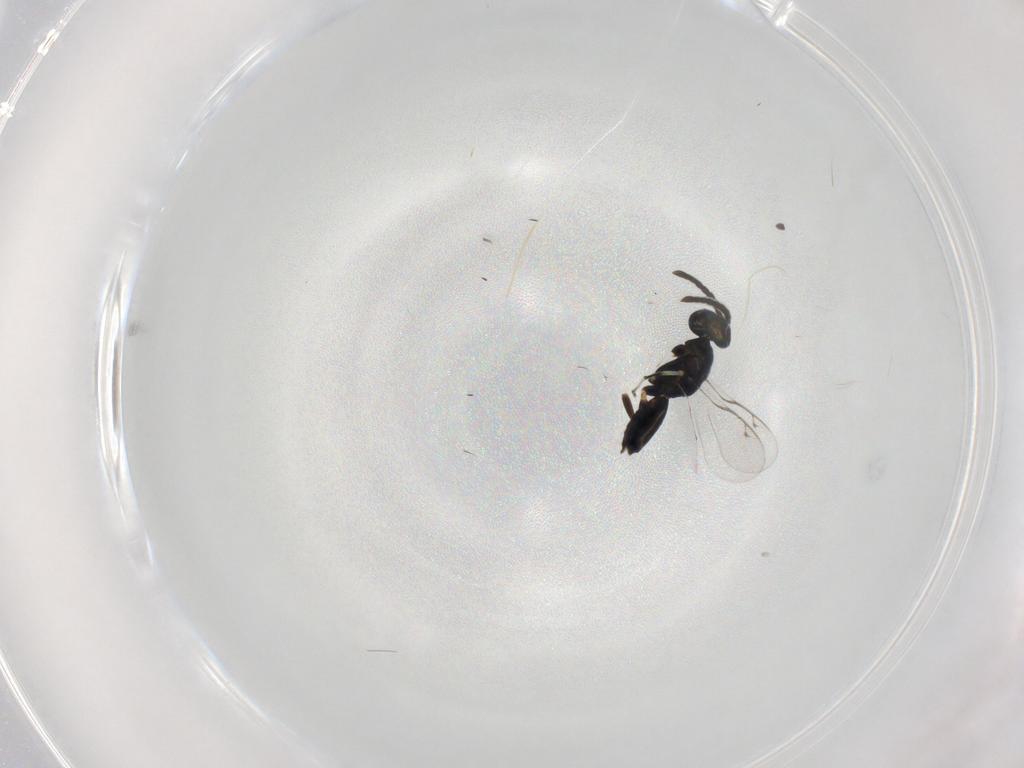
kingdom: Animalia
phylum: Arthropoda
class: Insecta
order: Hymenoptera
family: Eupelmidae
